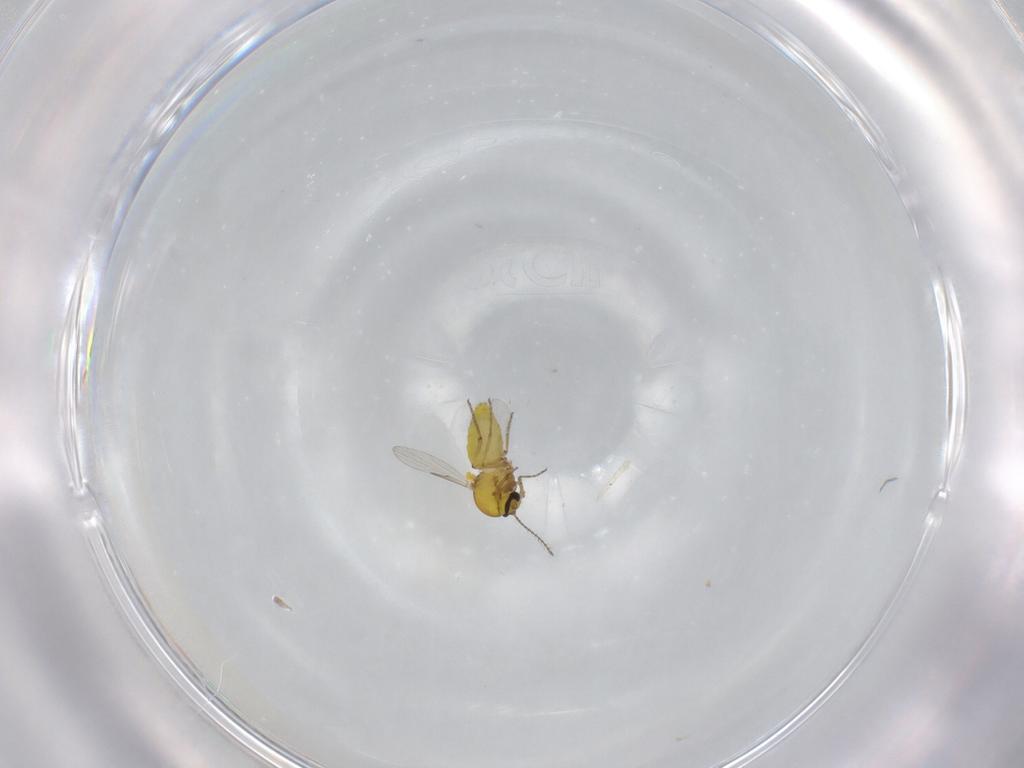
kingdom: Animalia
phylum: Arthropoda
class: Insecta
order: Diptera
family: Ceratopogonidae
